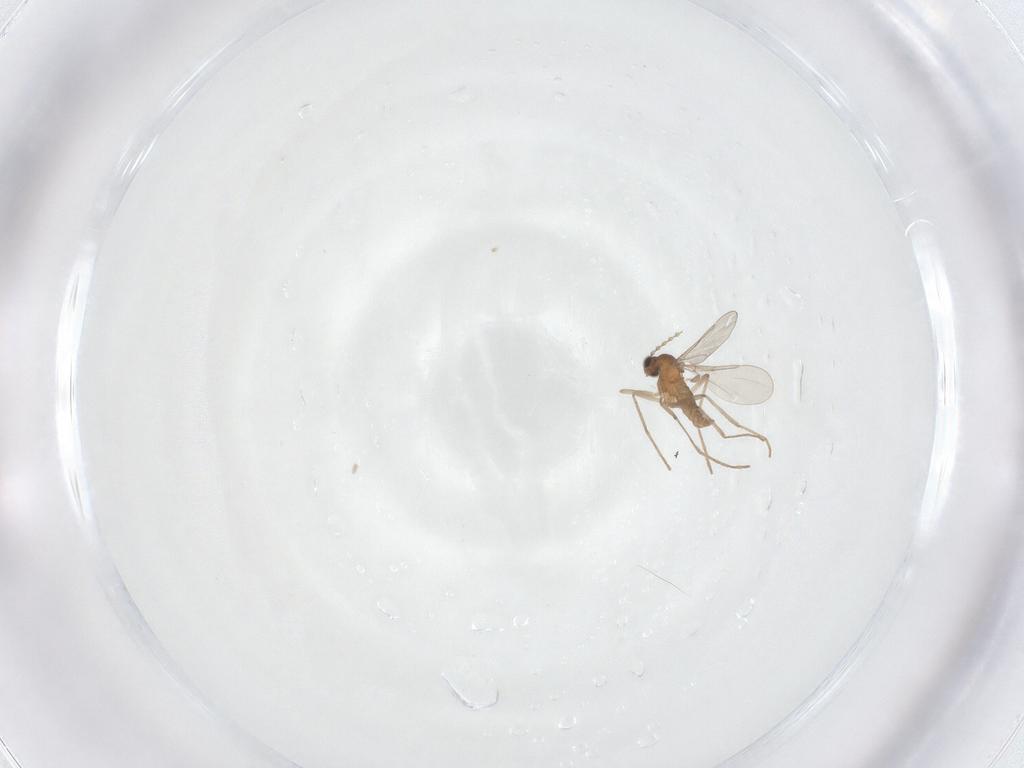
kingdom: Animalia
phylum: Arthropoda
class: Insecta
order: Diptera
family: Cecidomyiidae
